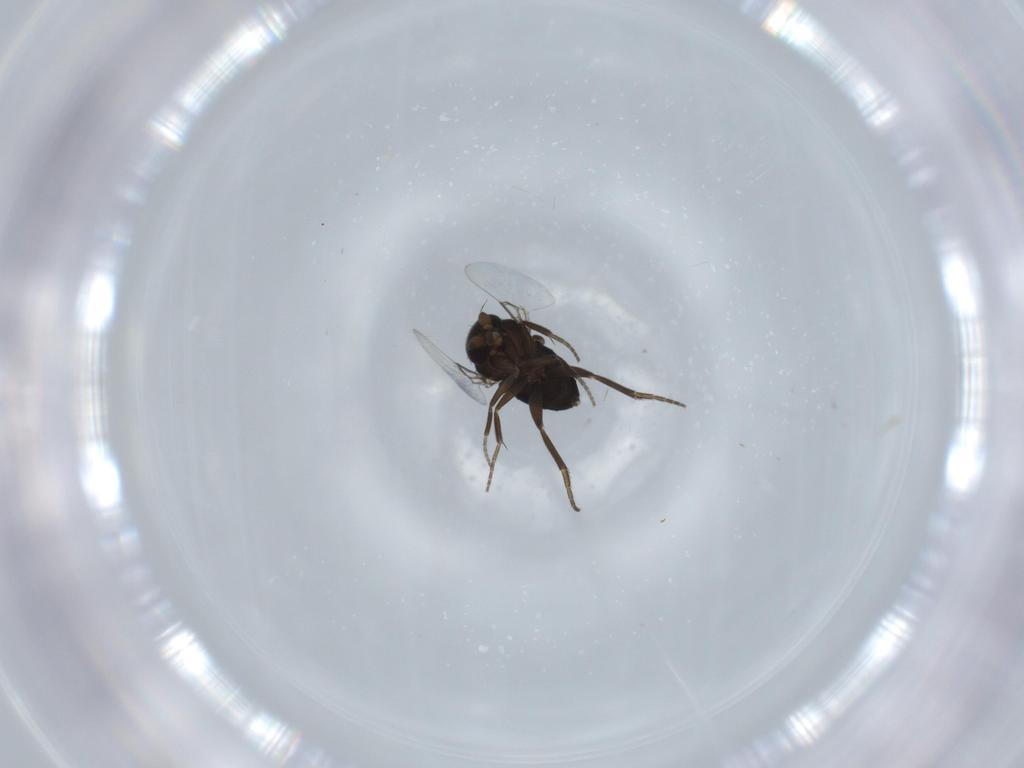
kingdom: Animalia
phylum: Arthropoda
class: Insecta
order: Diptera
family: Phoridae
